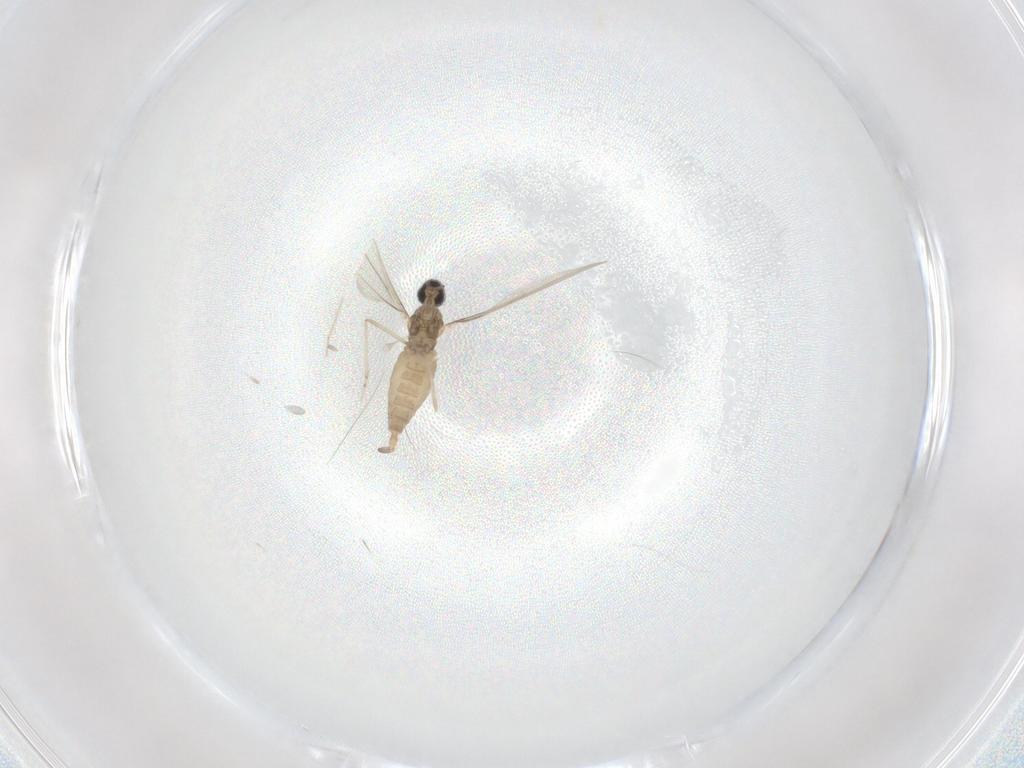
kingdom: Animalia
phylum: Arthropoda
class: Insecta
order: Diptera
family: Cecidomyiidae
